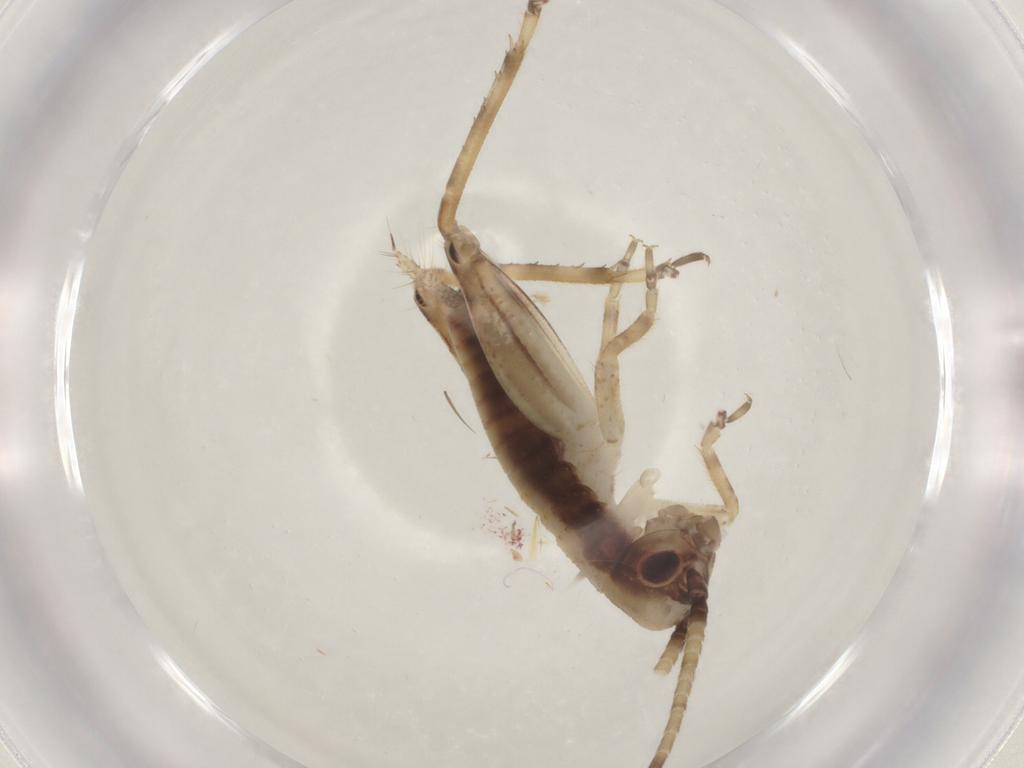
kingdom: Animalia
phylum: Arthropoda
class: Insecta
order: Orthoptera
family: Gryllidae
